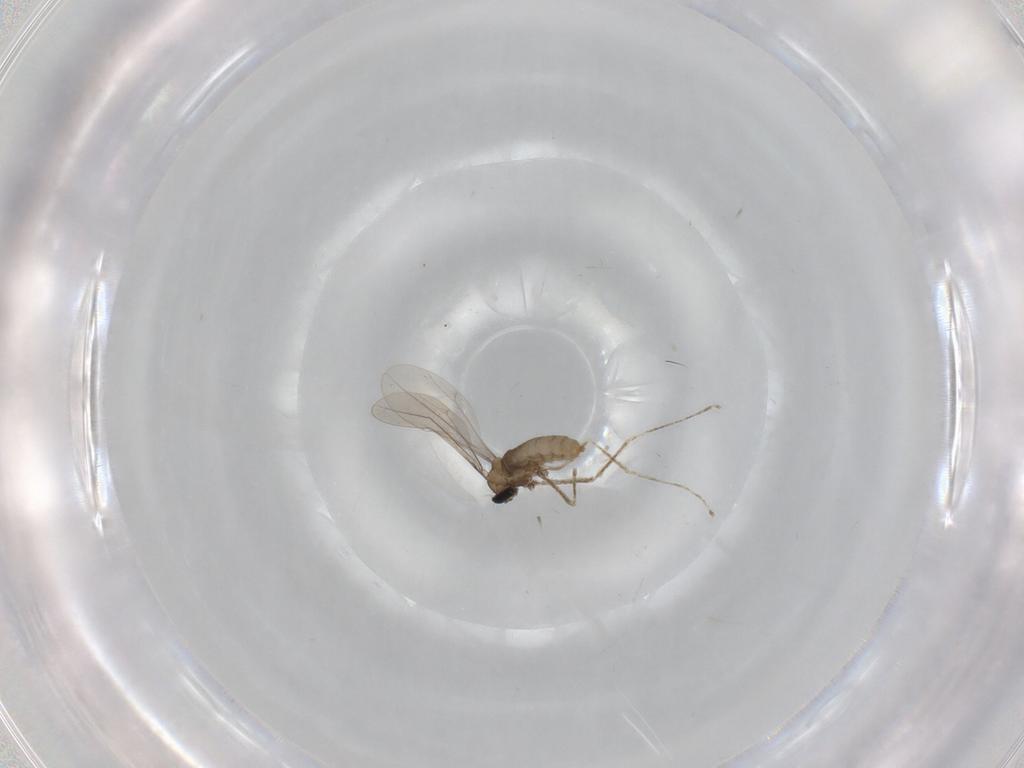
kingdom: Animalia
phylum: Arthropoda
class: Insecta
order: Diptera
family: Cecidomyiidae
